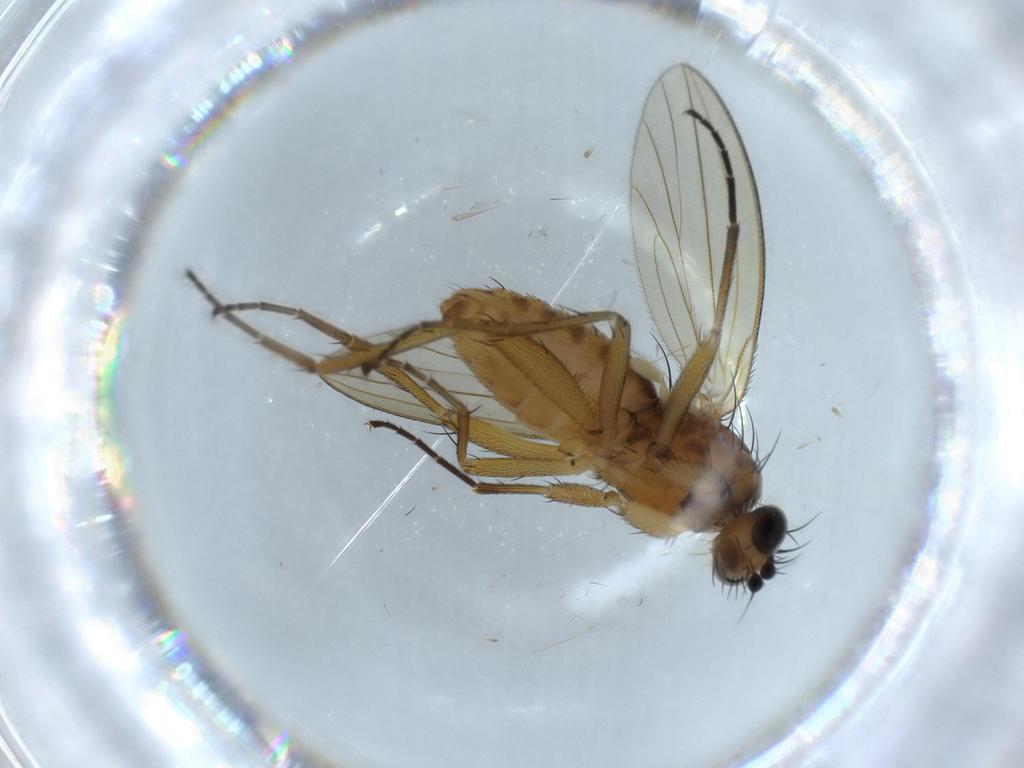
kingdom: Animalia
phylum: Arthropoda
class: Insecta
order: Diptera
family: Lonchopteridae
